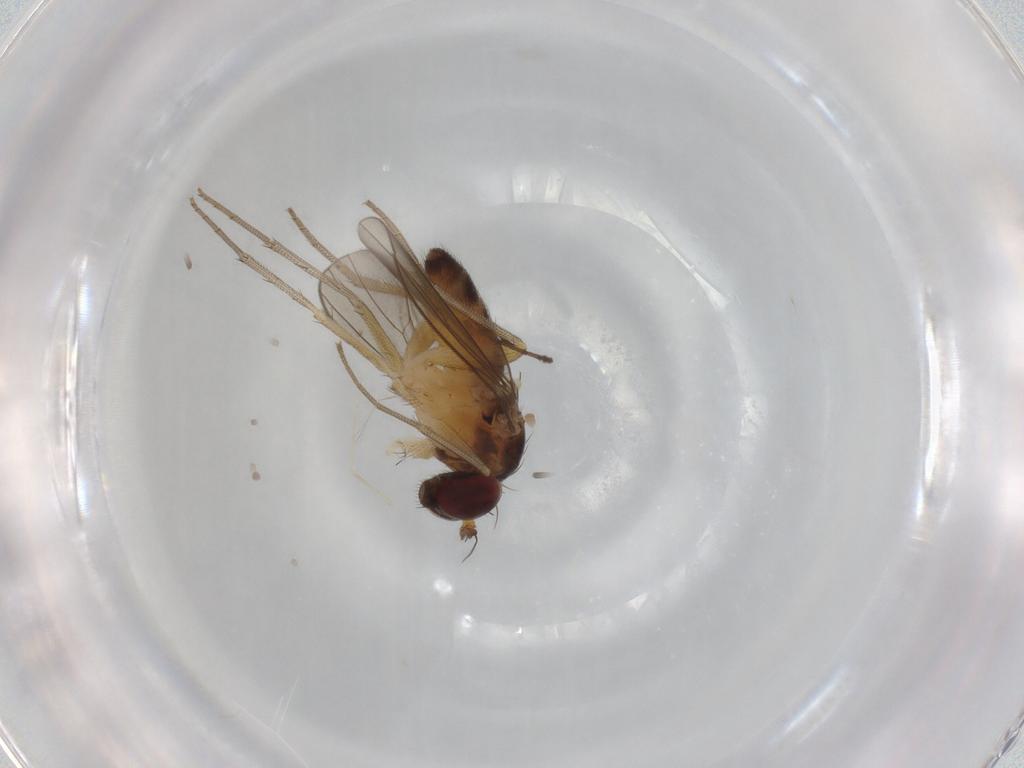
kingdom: Animalia
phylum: Arthropoda
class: Insecta
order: Diptera
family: Dolichopodidae
